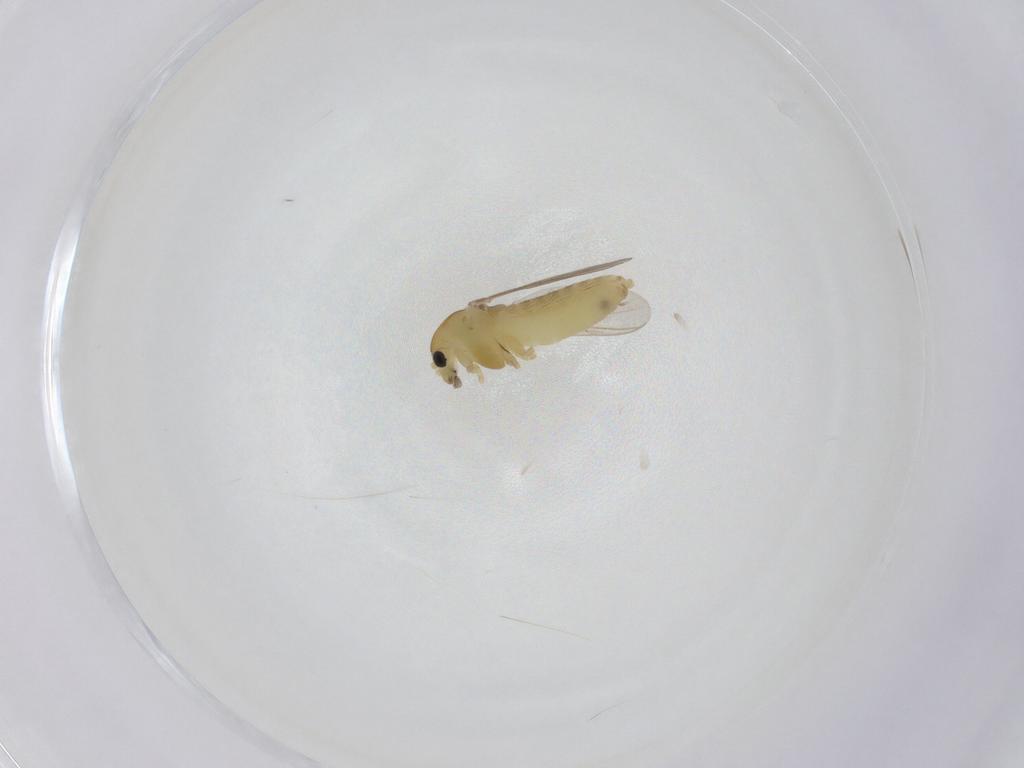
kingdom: Animalia
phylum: Arthropoda
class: Insecta
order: Diptera
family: Chironomidae
